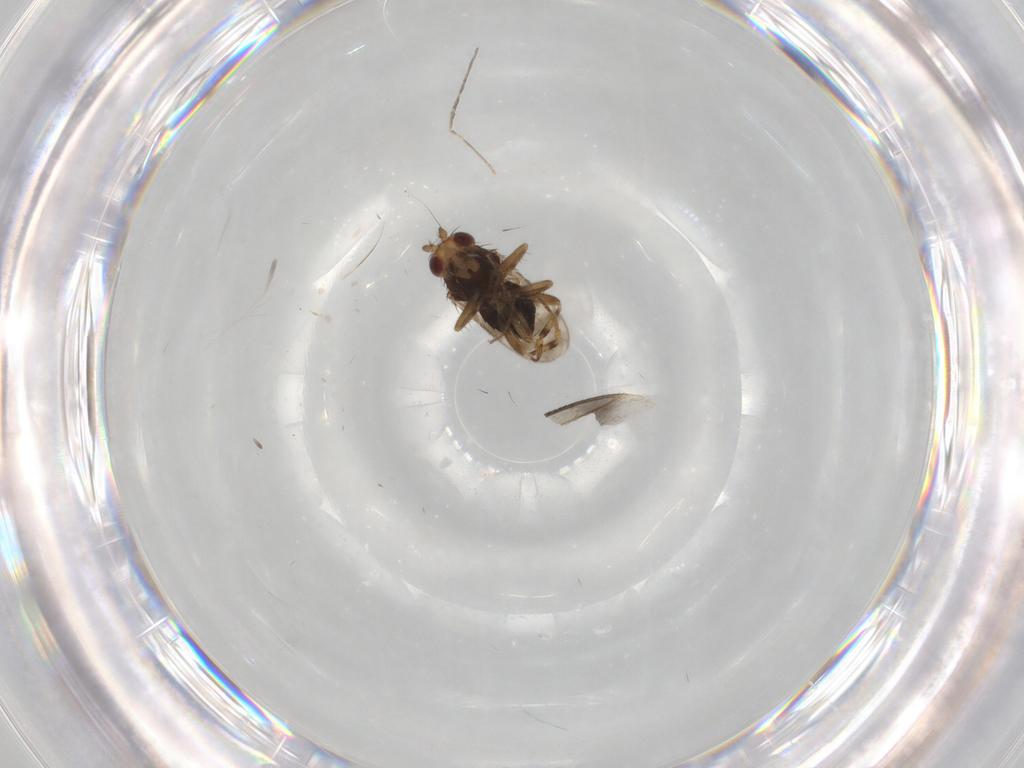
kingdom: Animalia
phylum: Arthropoda
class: Insecta
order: Diptera
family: Sphaeroceridae
